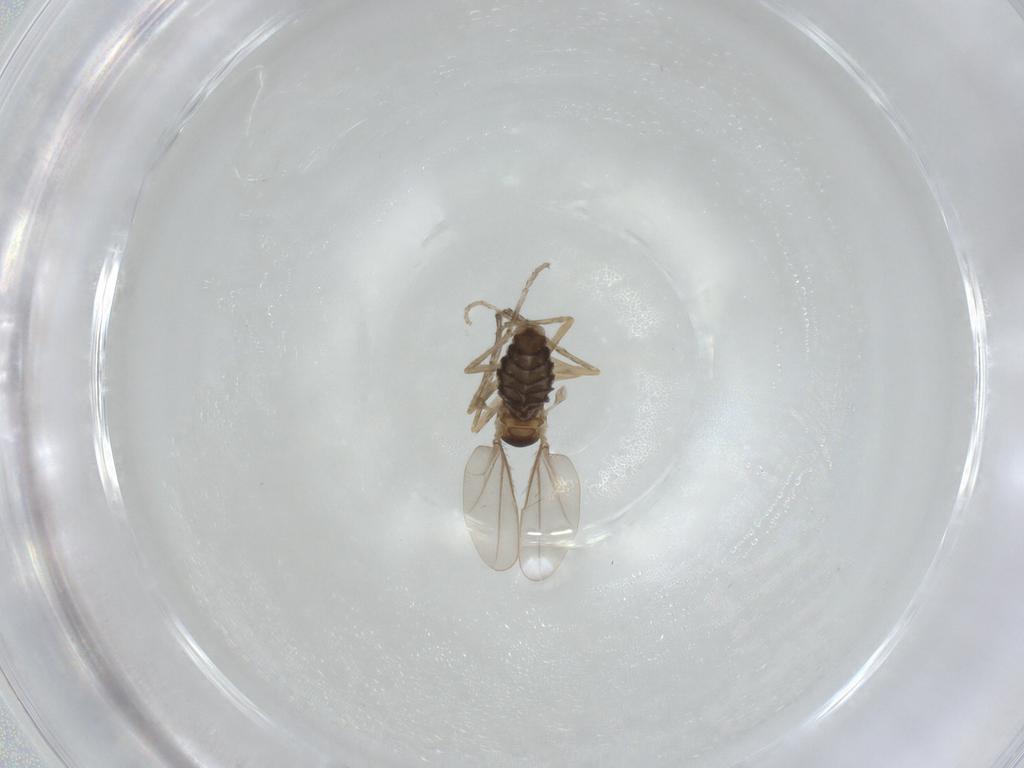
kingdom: Animalia
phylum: Arthropoda
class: Insecta
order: Diptera
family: Cecidomyiidae
